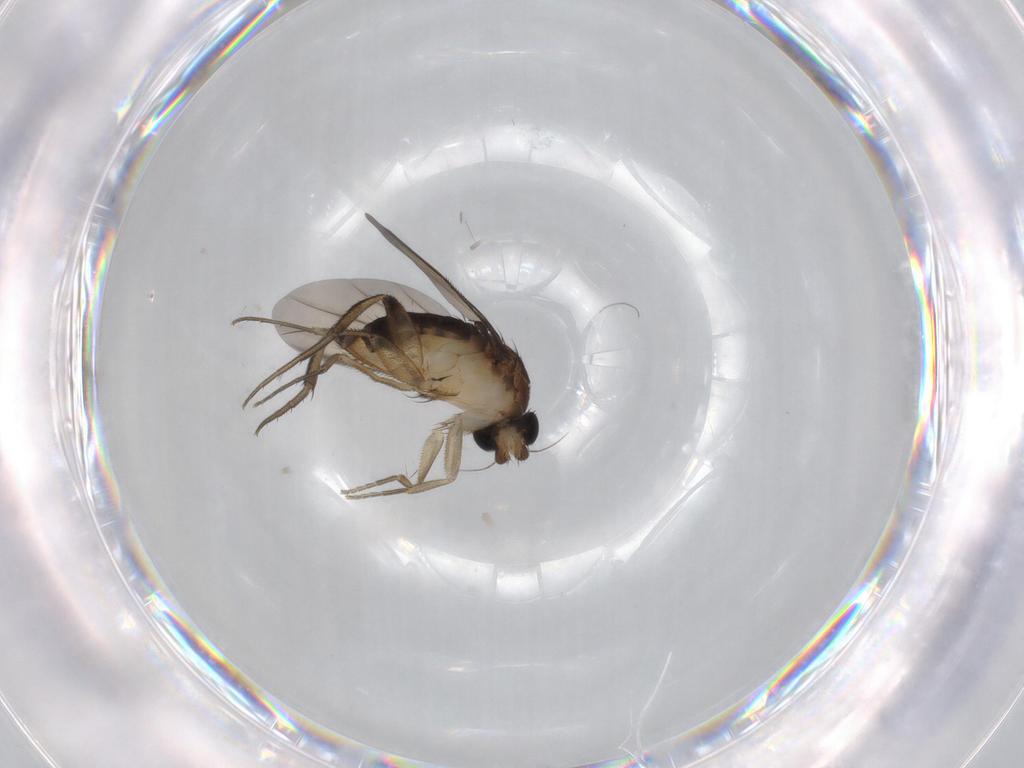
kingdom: Animalia
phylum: Arthropoda
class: Insecta
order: Diptera
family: Phoridae
